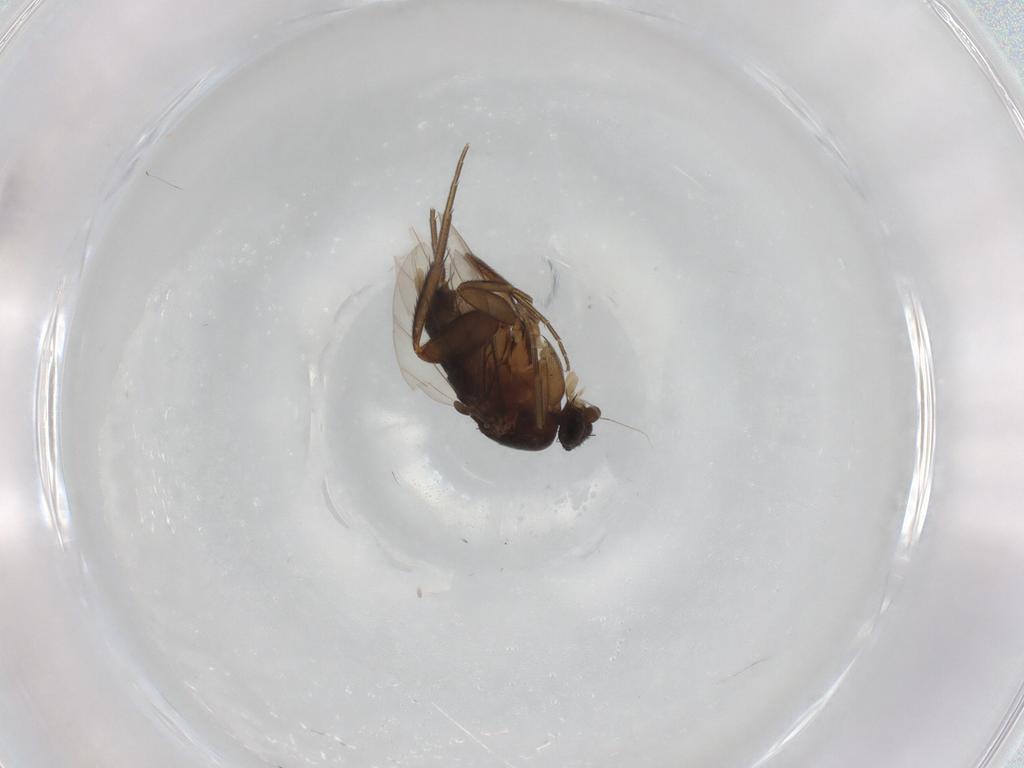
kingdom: Animalia
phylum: Arthropoda
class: Insecta
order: Diptera
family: Phoridae
